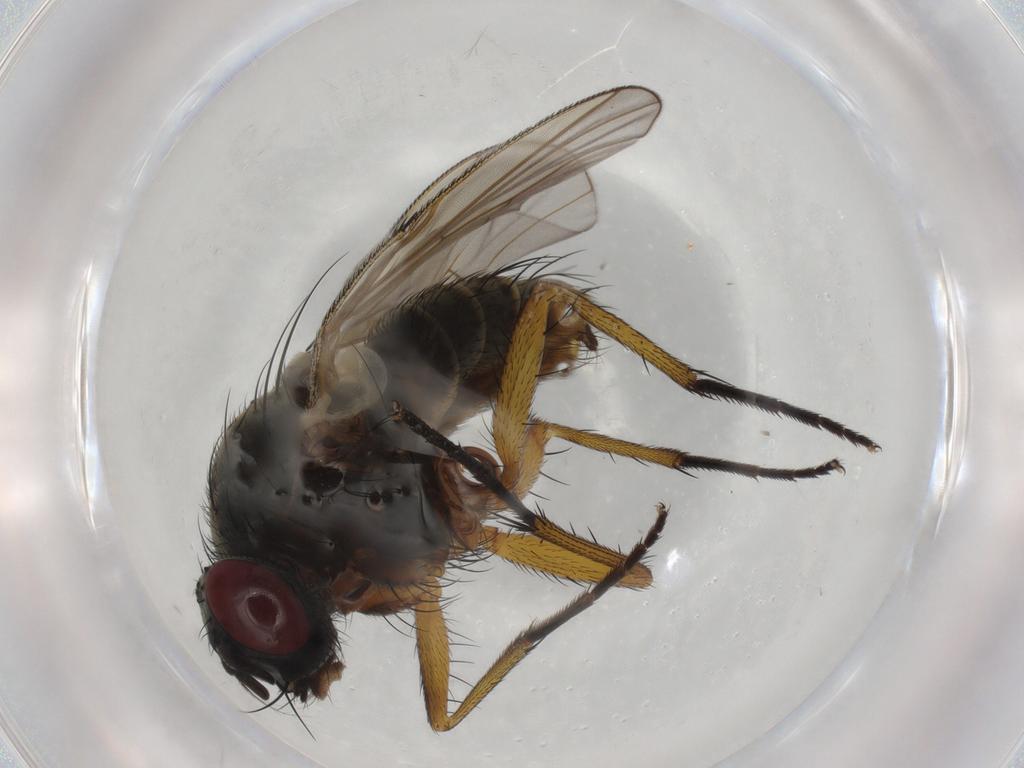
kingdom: Animalia
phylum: Arthropoda
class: Insecta
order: Diptera
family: Muscidae
